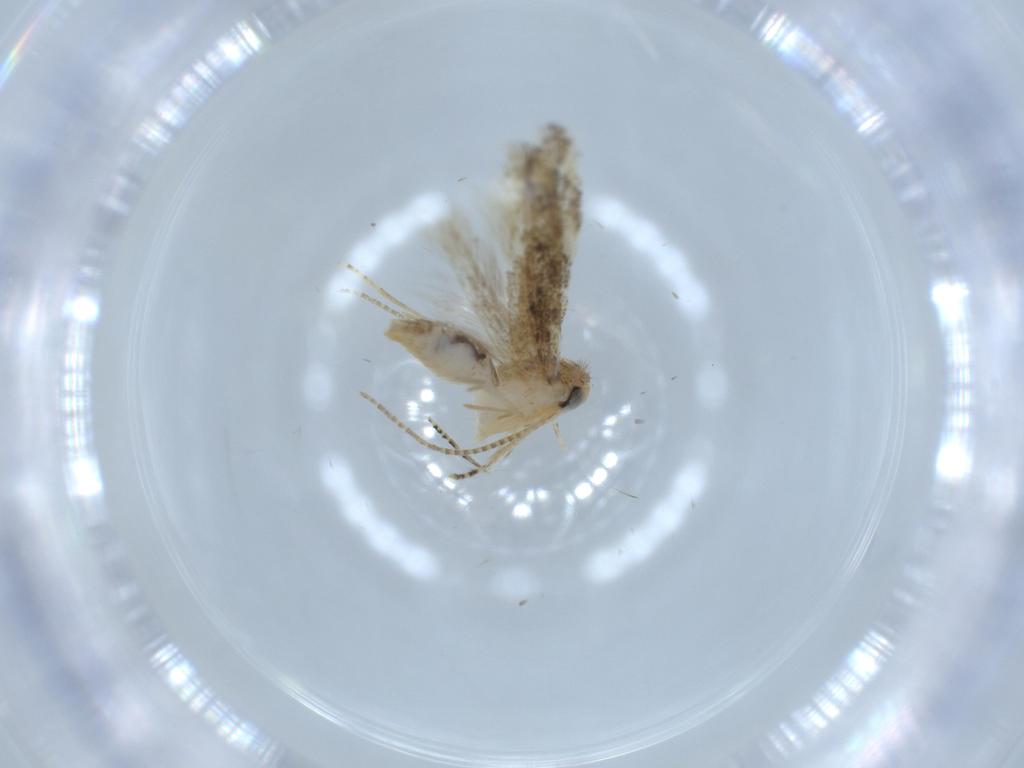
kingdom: Animalia
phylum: Arthropoda
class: Insecta
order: Lepidoptera
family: Bucculatricidae
